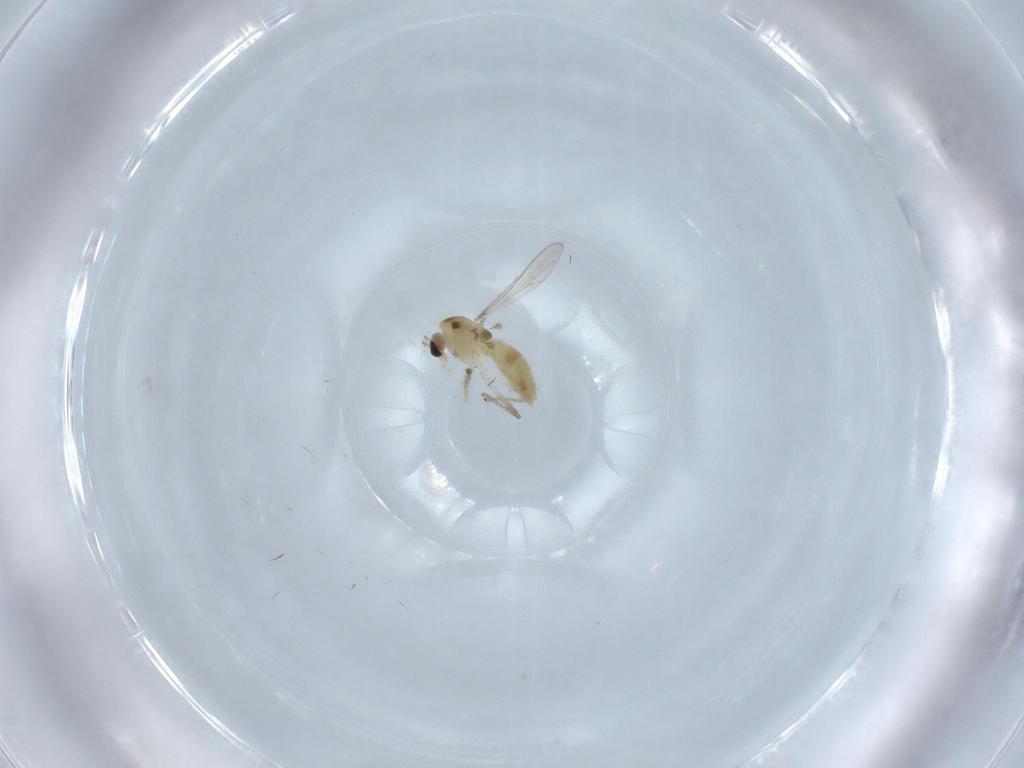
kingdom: Animalia
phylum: Arthropoda
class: Insecta
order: Diptera
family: Chironomidae
